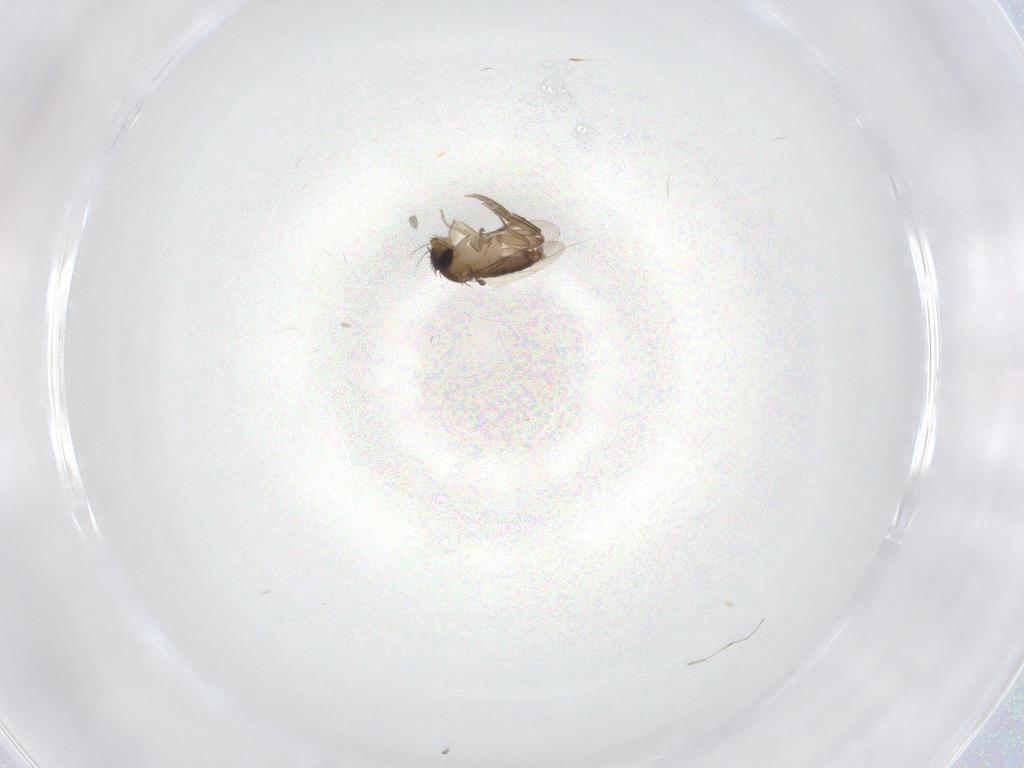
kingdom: Animalia
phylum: Arthropoda
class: Insecta
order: Diptera
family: Phoridae
